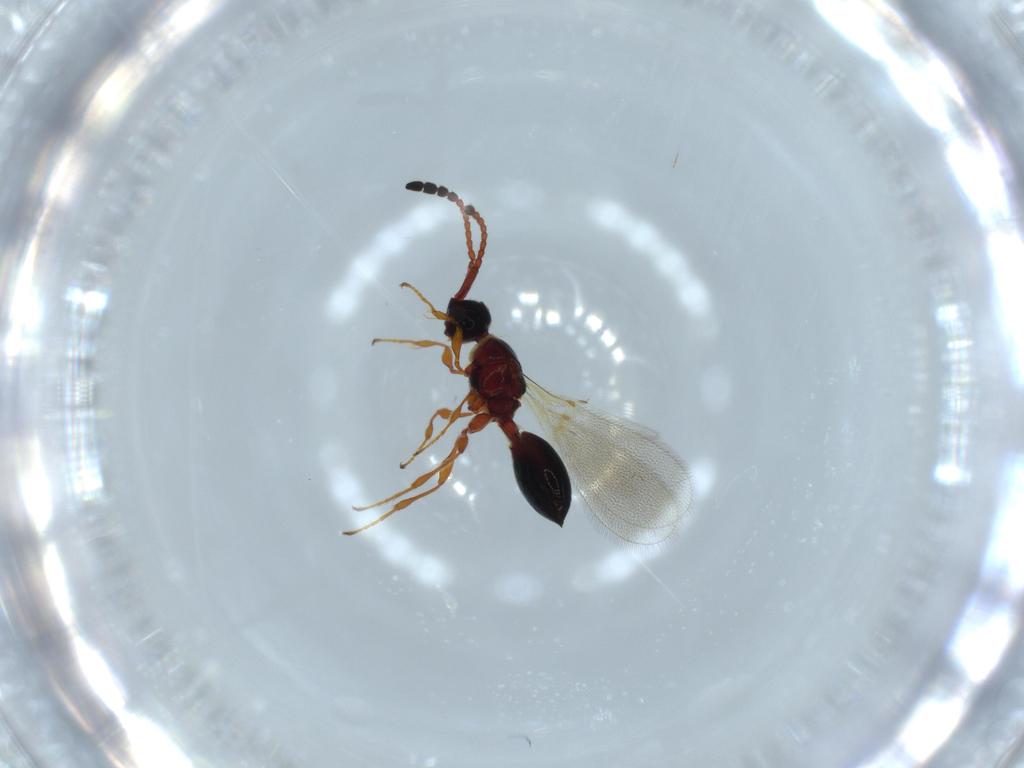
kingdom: Animalia
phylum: Arthropoda
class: Insecta
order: Hymenoptera
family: Diapriidae
